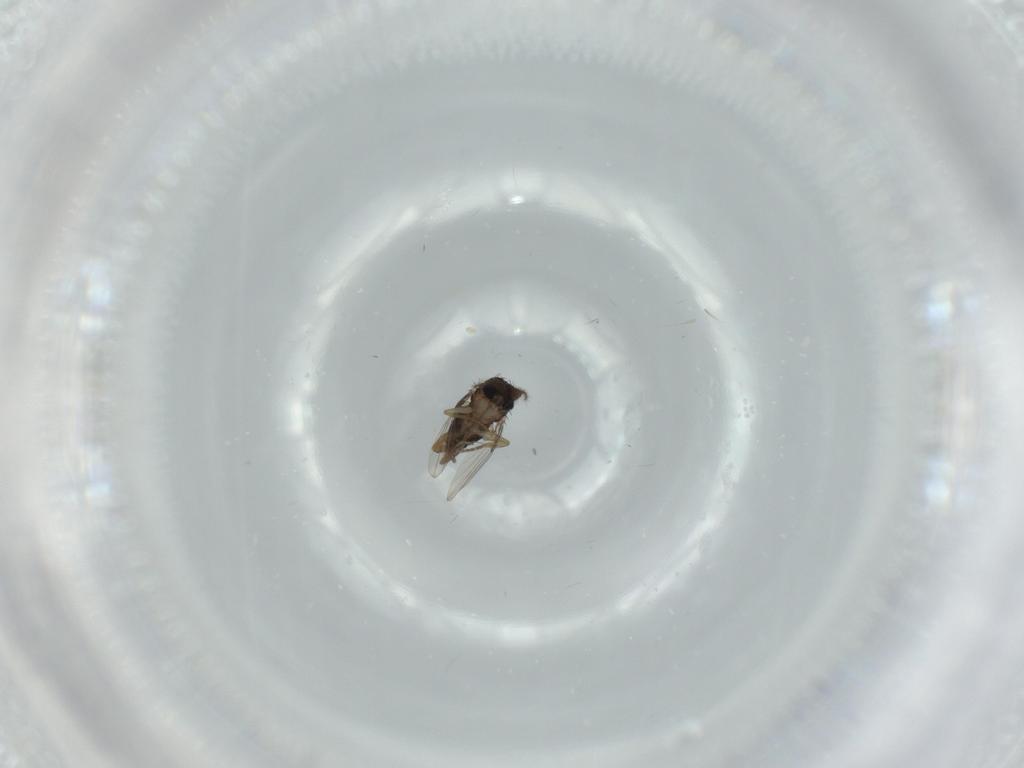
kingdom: Animalia
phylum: Arthropoda
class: Insecta
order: Diptera
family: Phoridae
